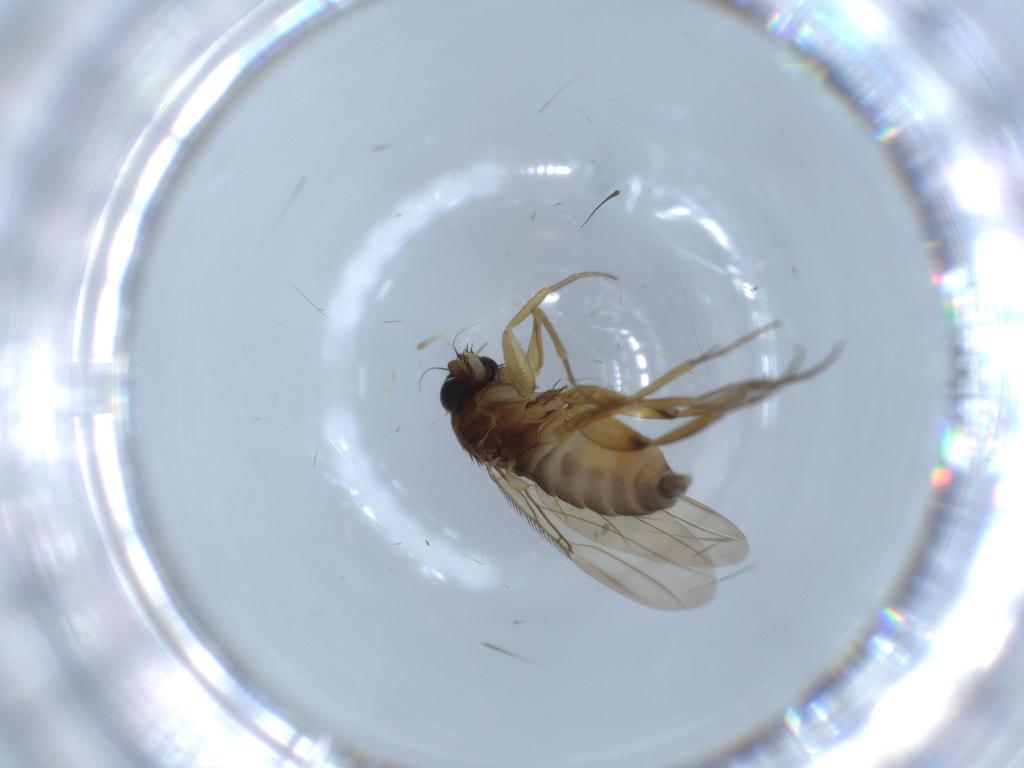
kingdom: Animalia
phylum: Arthropoda
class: Insecta
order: Diptera
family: Phoridae
